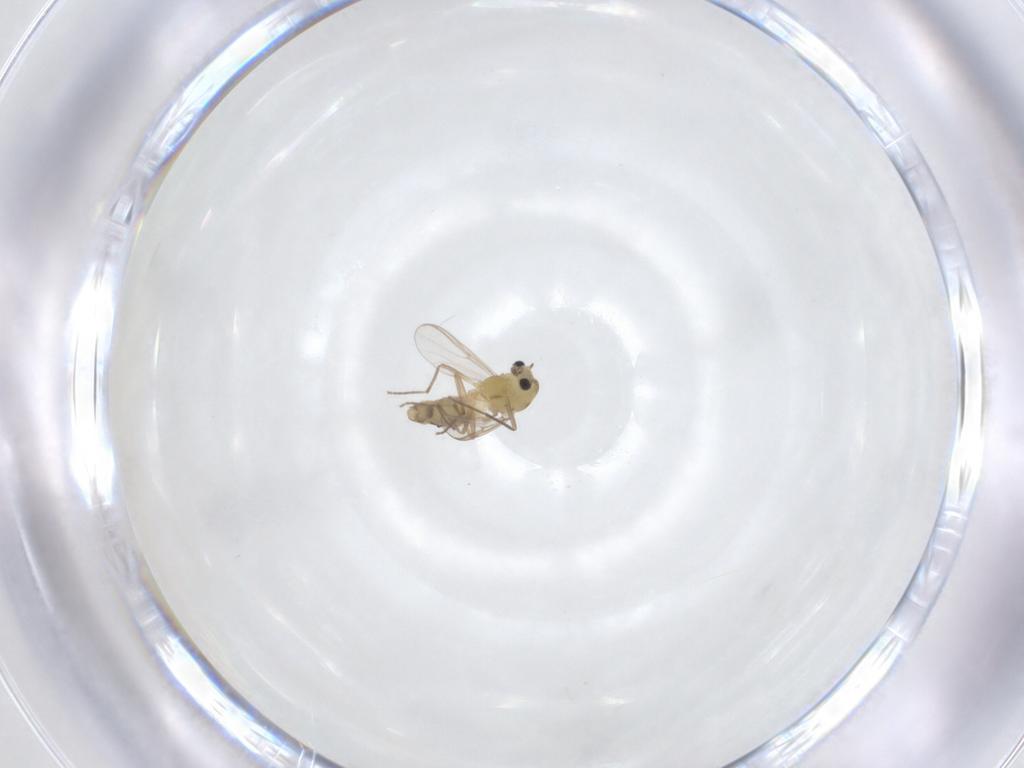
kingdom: Animalia
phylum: Arthropoda
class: Insecta
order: Diptera
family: Chironomidae
